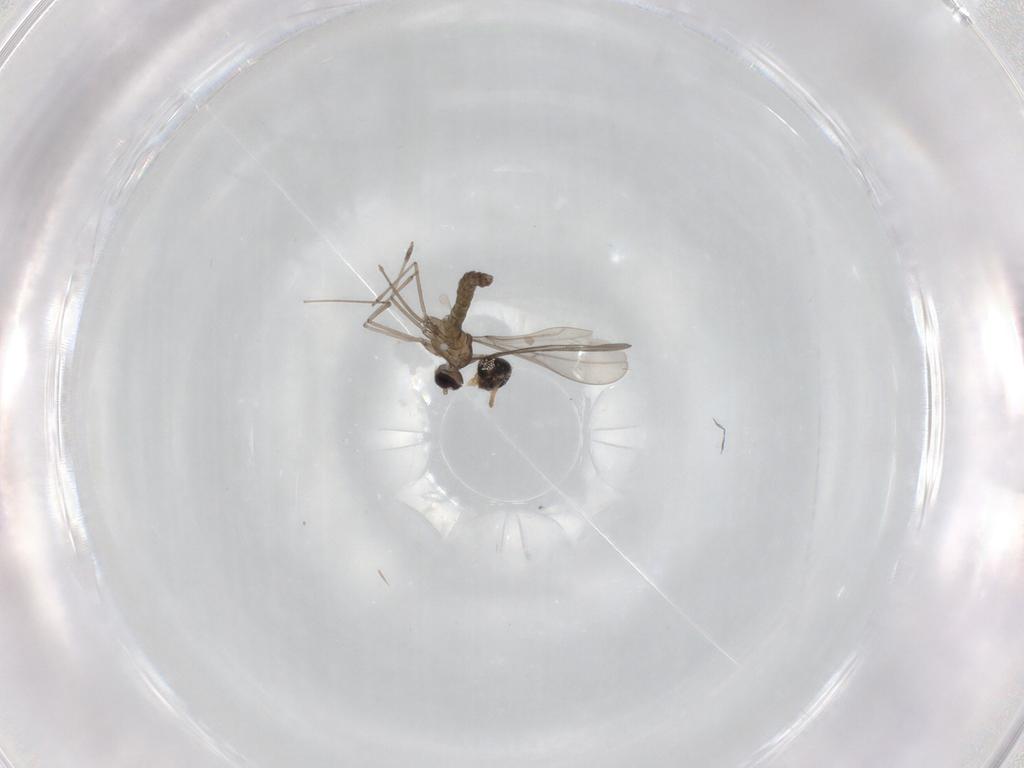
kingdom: Animalia
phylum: Arthropoda
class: Insecta
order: Diptera
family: Cecidomyiidae
